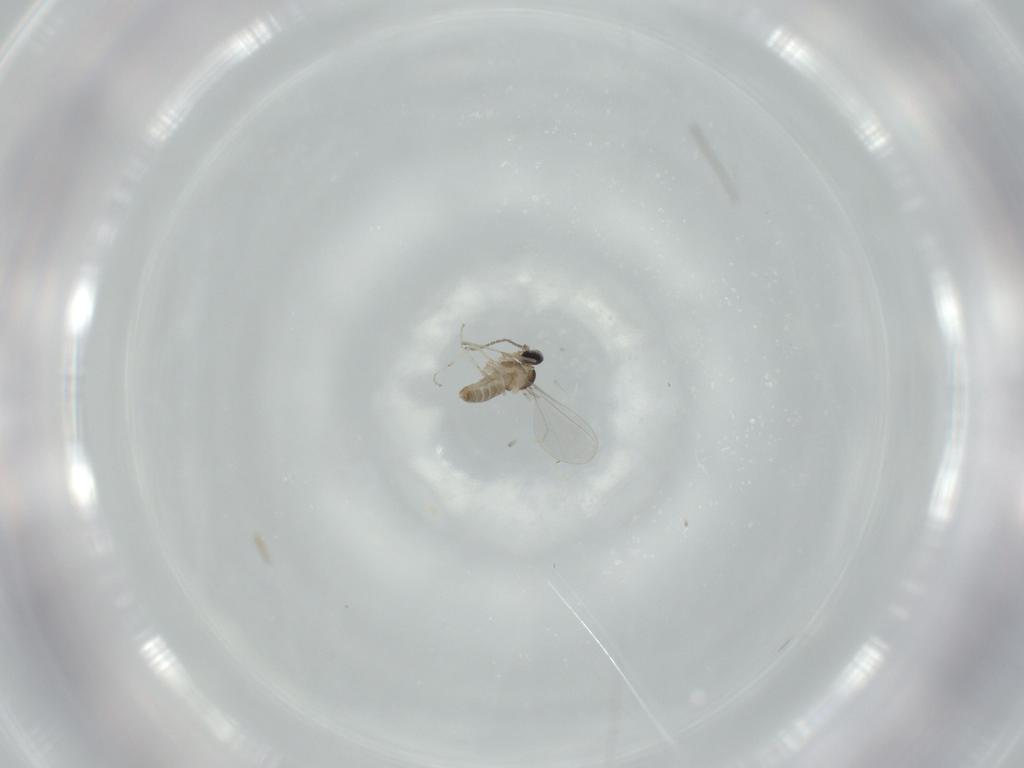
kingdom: Animalia
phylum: Arthropoda
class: Insecta
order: Diptera
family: Cecidomyiidae
